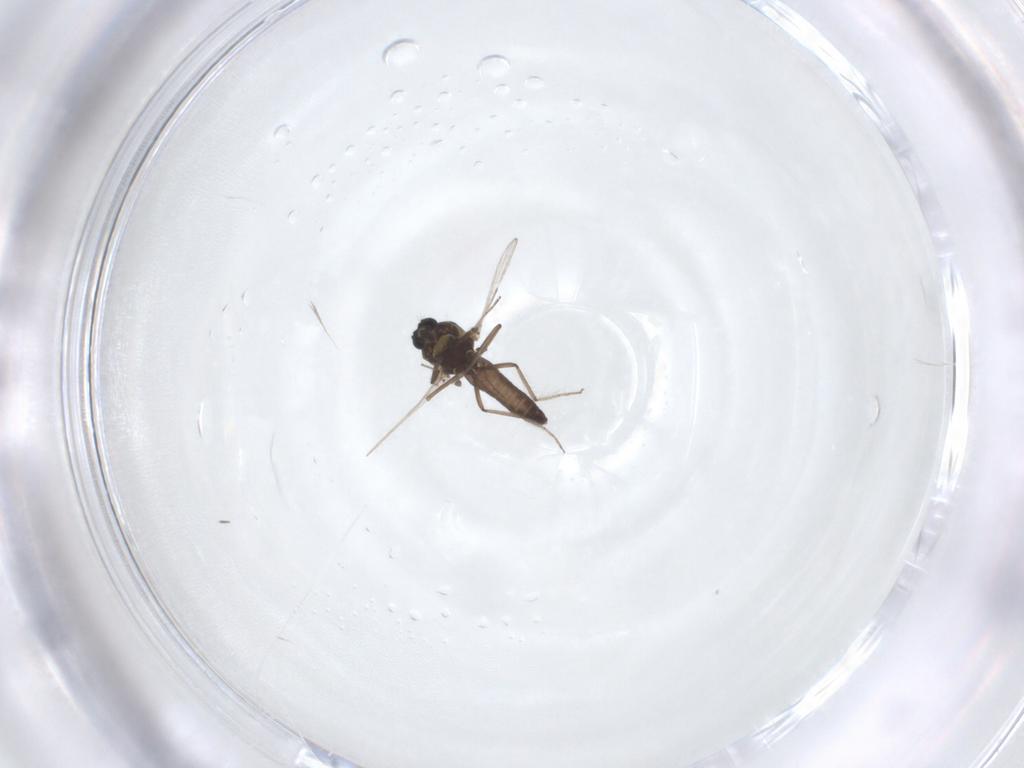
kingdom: Animalia
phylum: Arthropoda
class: Insecta
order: Diptera
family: Ceratopogonidae
